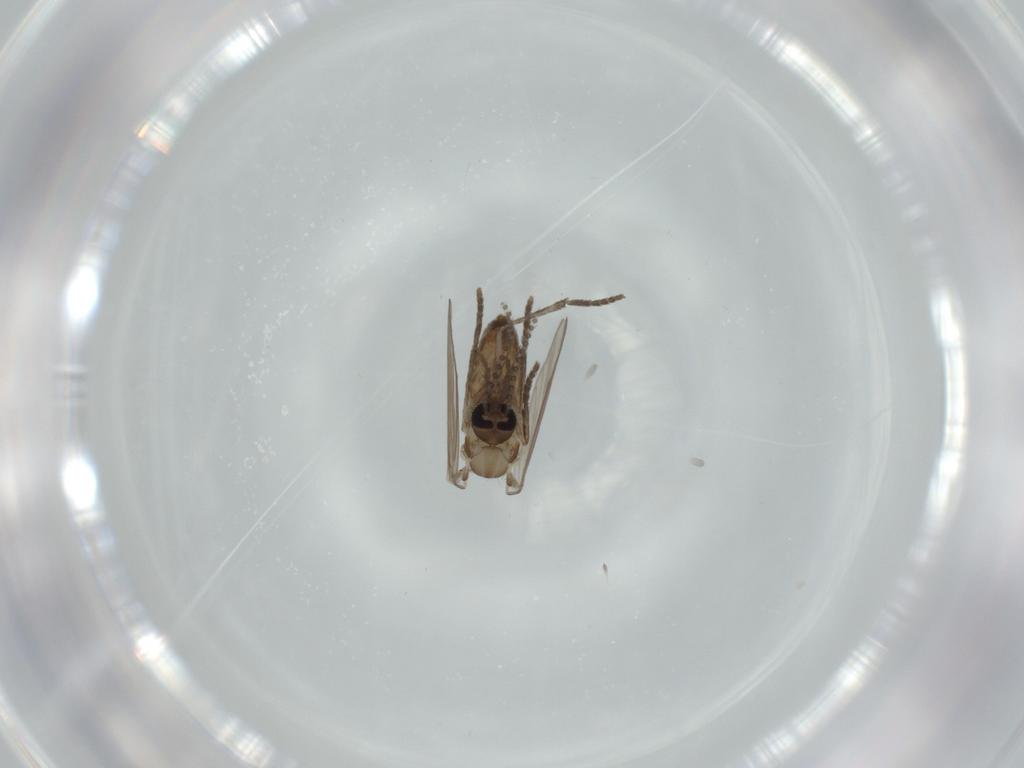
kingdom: Animalia
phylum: Arthropoda
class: Insecta
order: Diptera
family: Psychodidae
